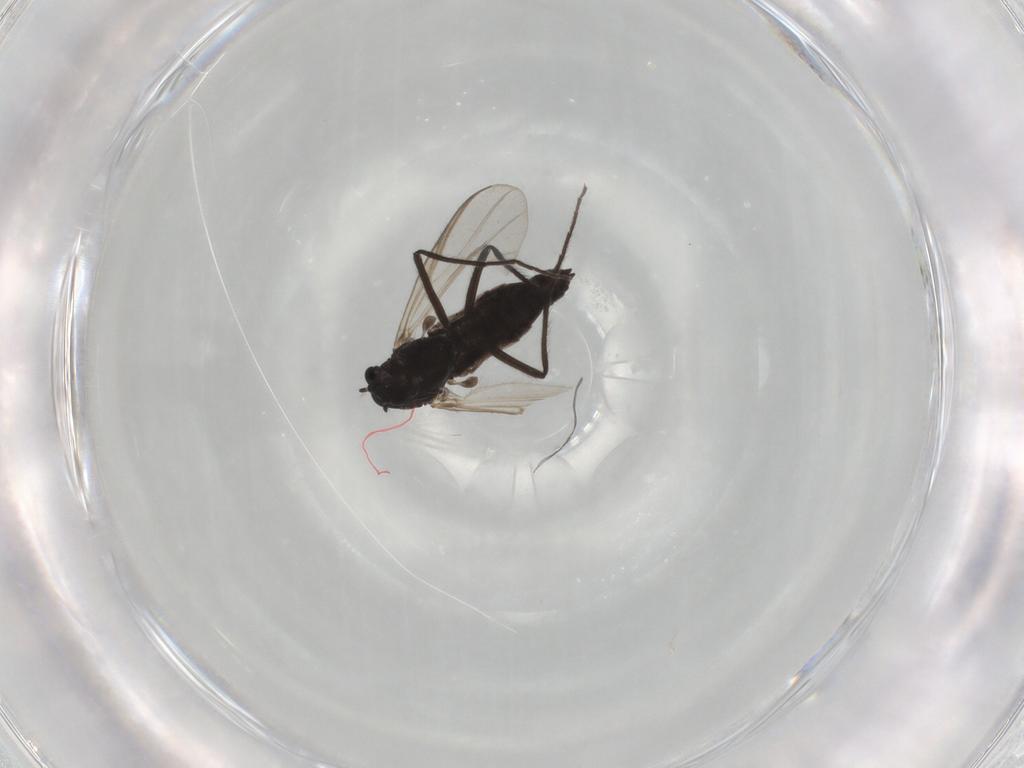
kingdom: Animalia
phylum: Arthropoda
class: Insecta
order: Diptera
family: Chironomidae
